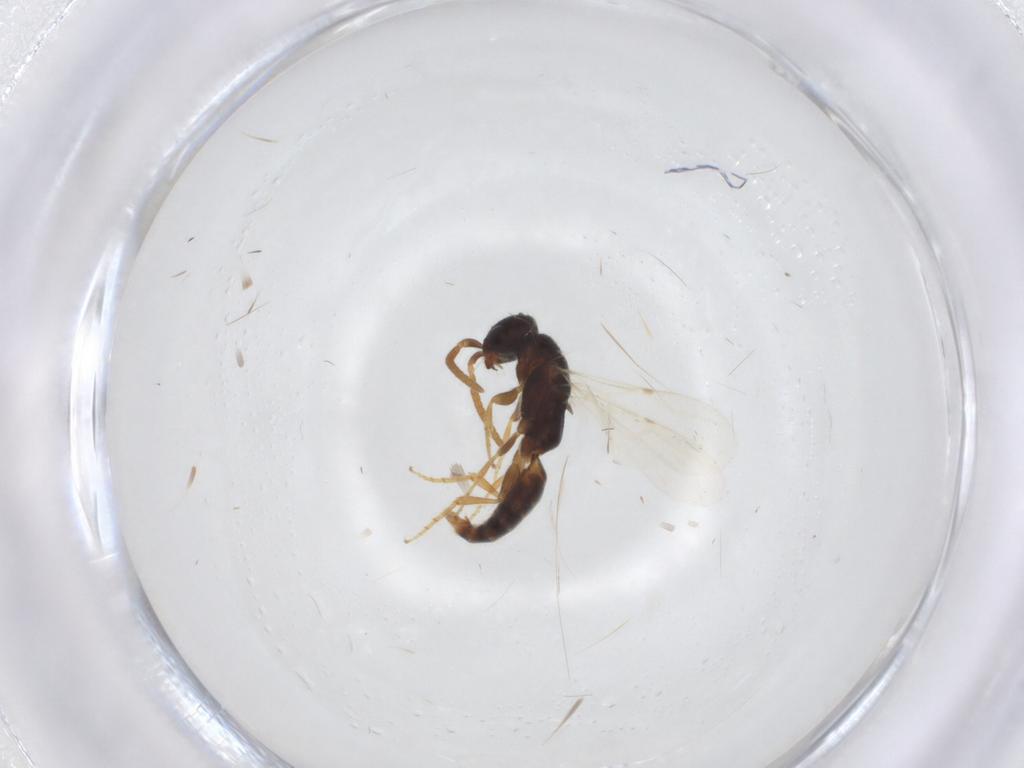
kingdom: Animalia
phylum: Arthropoda
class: Insecta
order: Hymenoptera
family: Bethylidae
